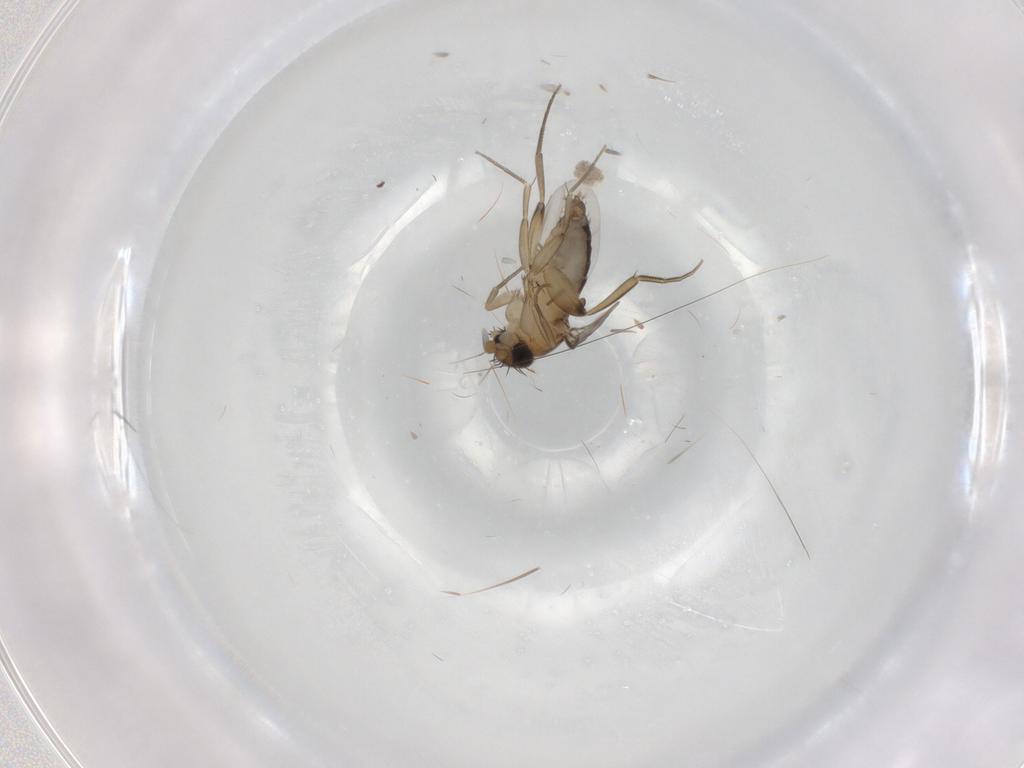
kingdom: Animalia
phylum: Arthropoda
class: Insecta
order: Diptera
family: Phoridae
